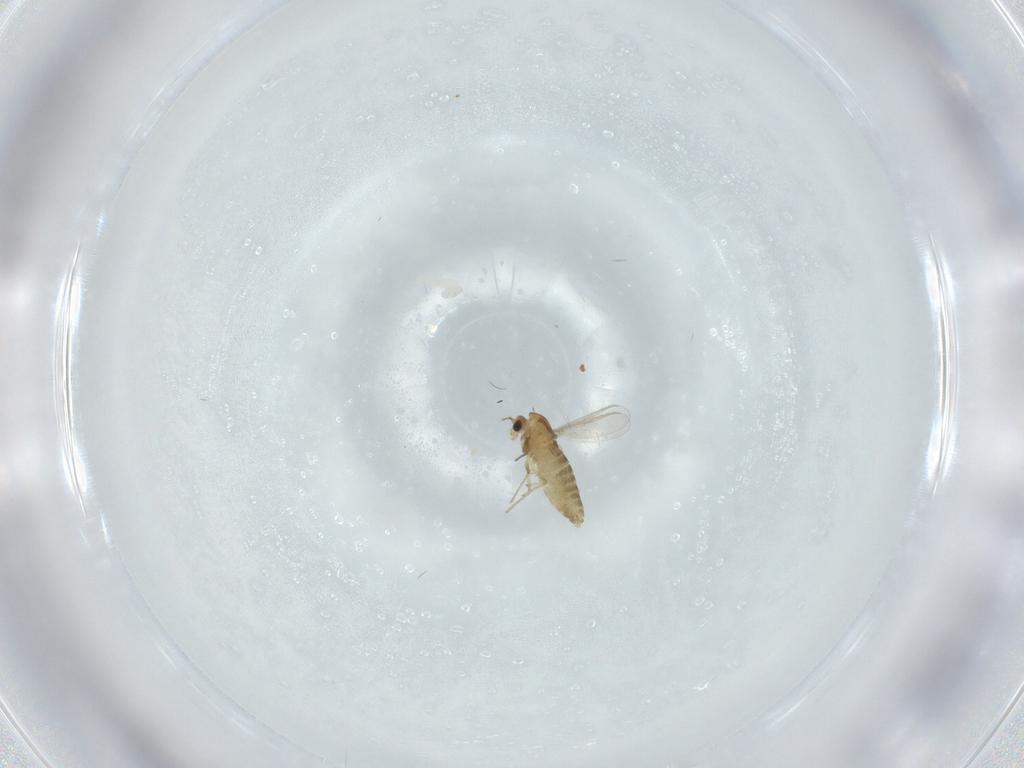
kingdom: Animalia
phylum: Arthropoda
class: Insecta
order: Diptera
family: Chironomidae
